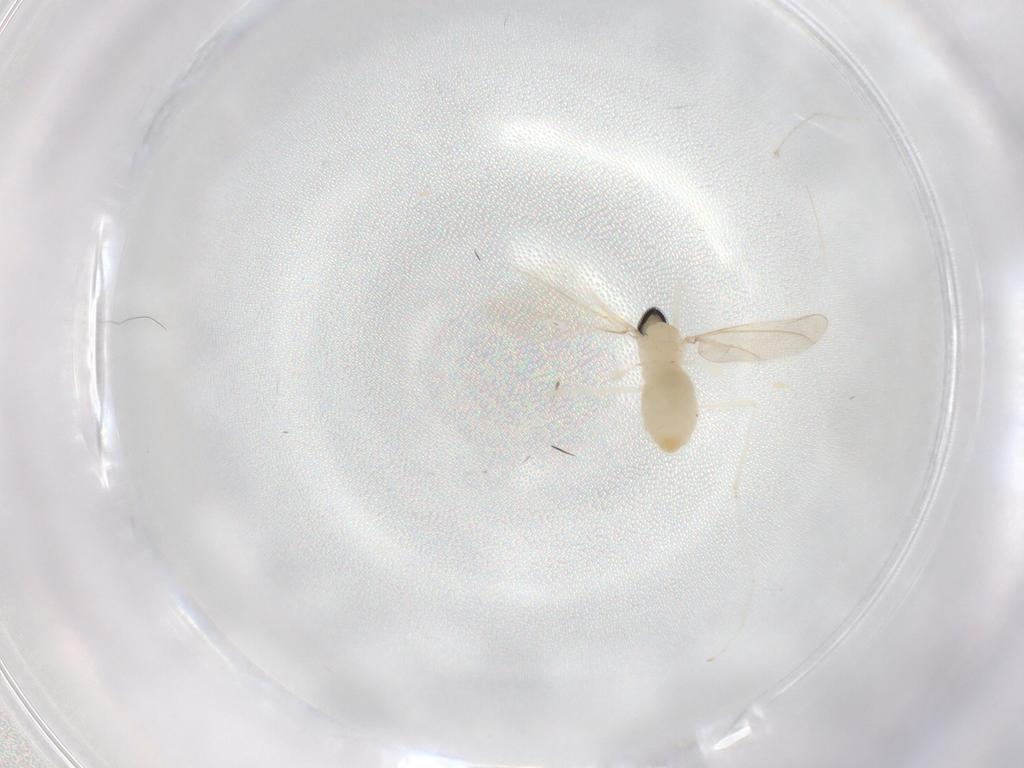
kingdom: Animalia
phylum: Arthropoda
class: Insecta
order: Diptera
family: Cecidomyiidae
